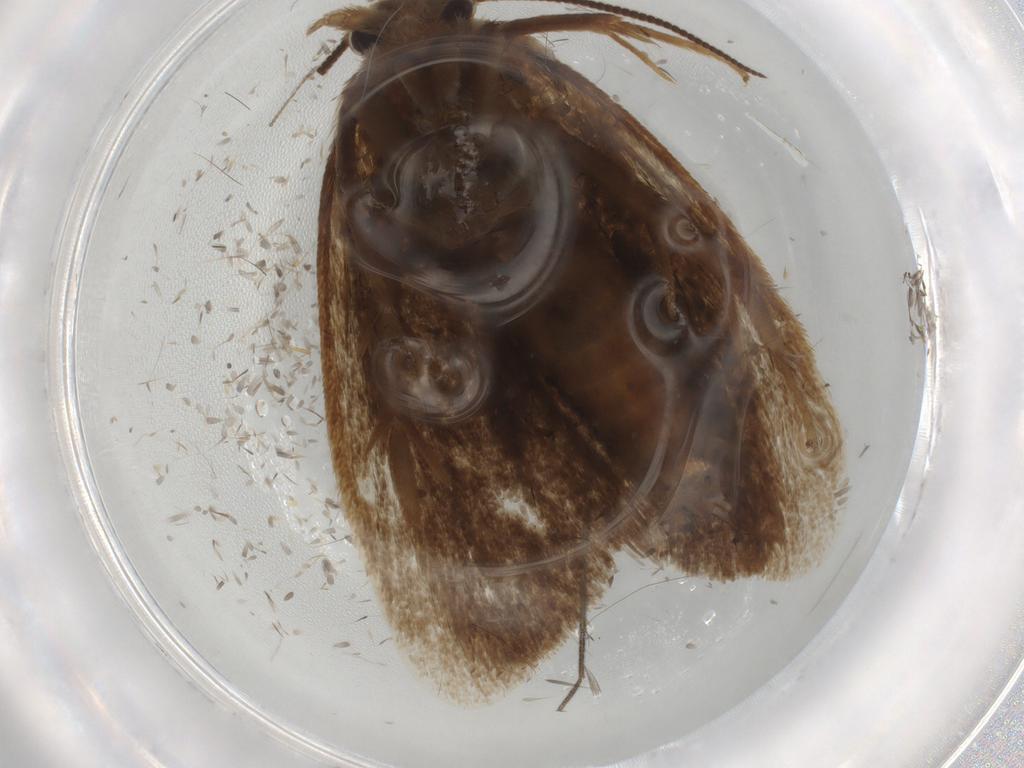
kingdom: Animalia
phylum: Arthropoda
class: Insecta
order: Lepidoptera
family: Tineidae
